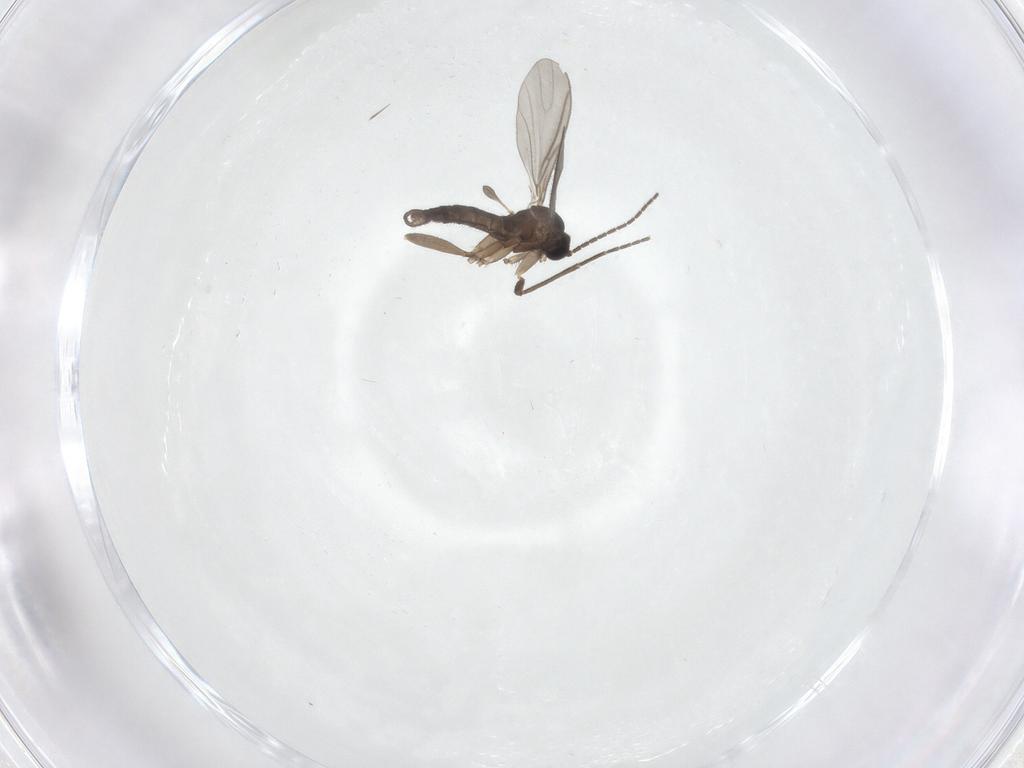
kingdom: Animalia
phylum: Arthropoda
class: Insecta
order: Diptera
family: Sciaridae
